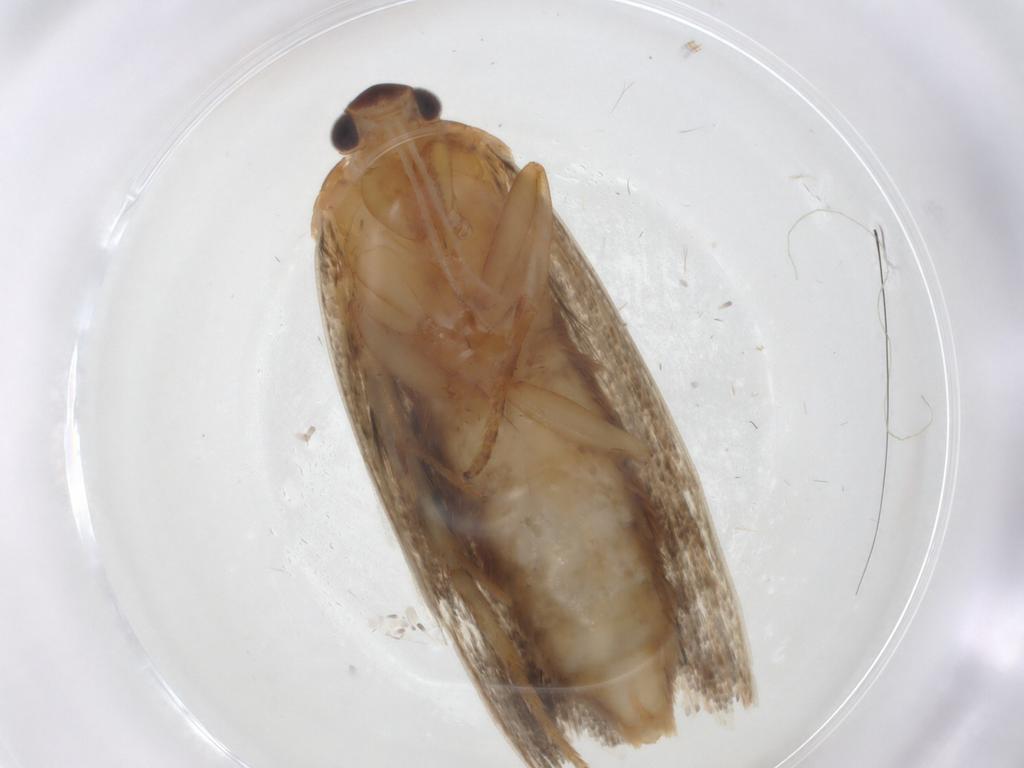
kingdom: Animalia
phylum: Arthropoda
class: Insecta
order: Lepidoptera
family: Oecophoridae
